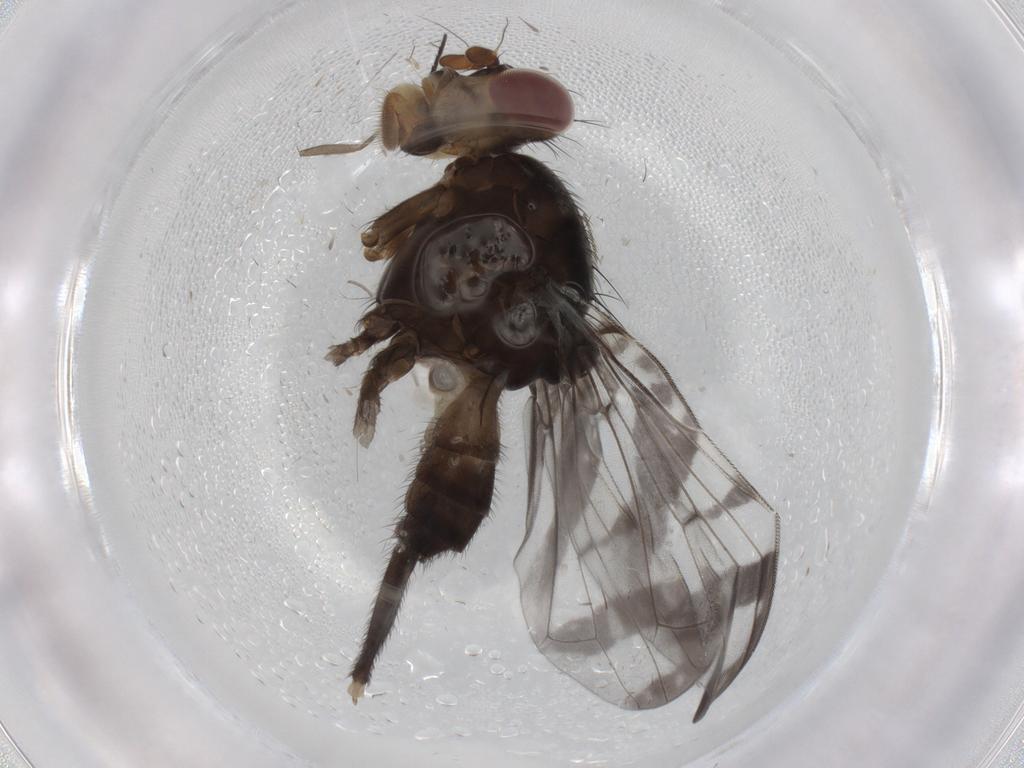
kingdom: Animalia
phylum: Arthropoda
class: Insecta
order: Diptera
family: Ulidiidae
